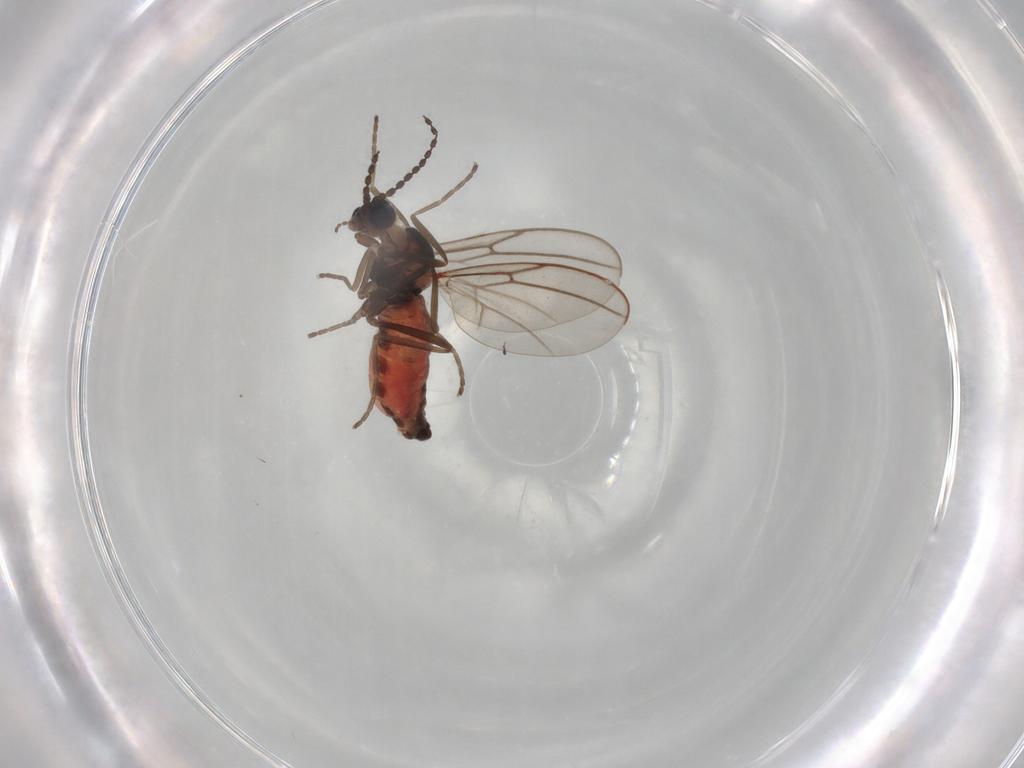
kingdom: Animalia
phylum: Arthropoda
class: Insecta
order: Diptera
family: Cecidomyiidae
